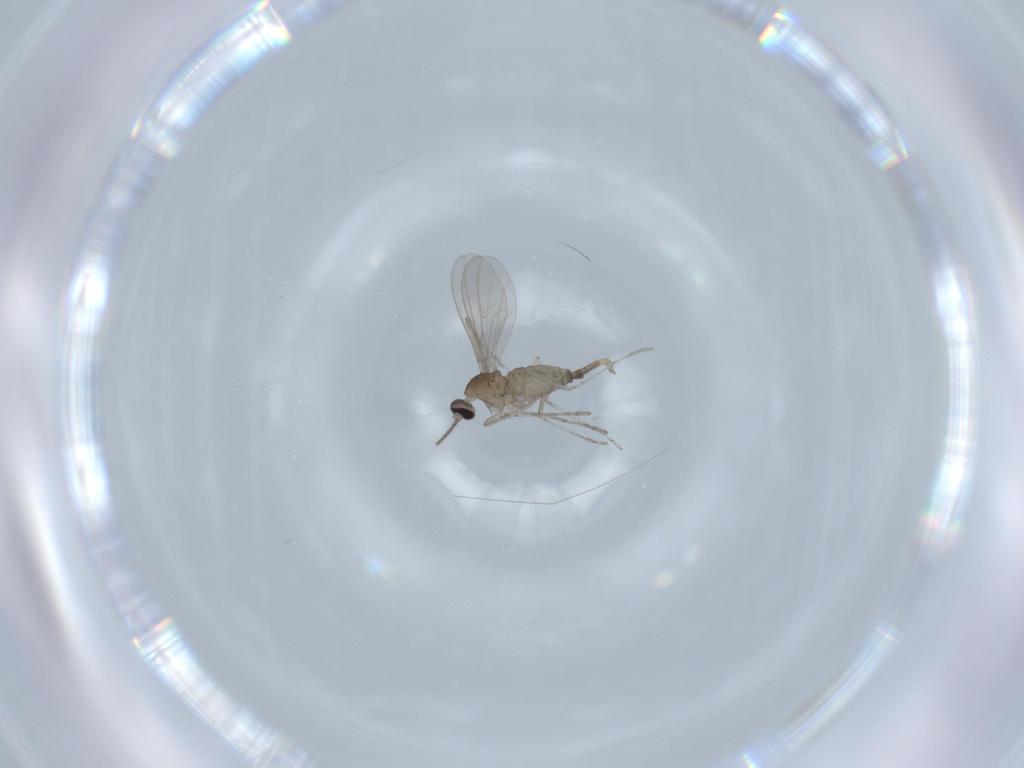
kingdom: Animalia
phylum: Arthropoda
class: Insecta
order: Diptera
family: Cecidomyiidae
